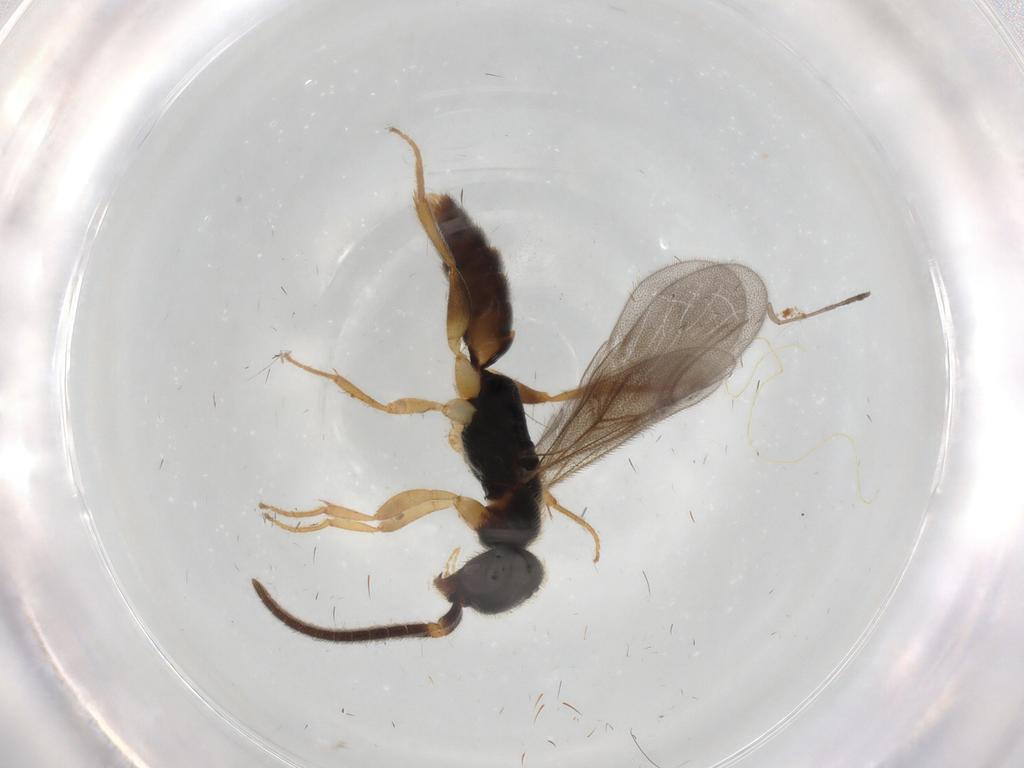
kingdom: Animalia
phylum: Arthropoda
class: Insecta
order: Hymenoptera
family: Bethylidae
